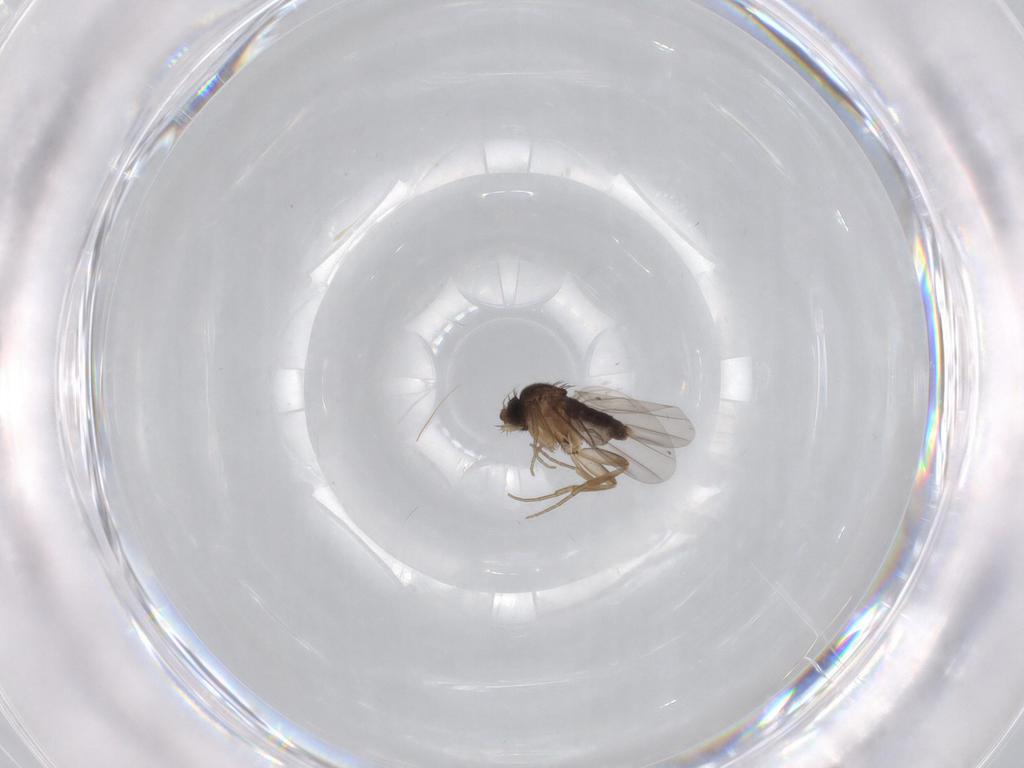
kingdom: Animalia
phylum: Arthropoda
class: Insecta
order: Diptera
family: Phoridae
